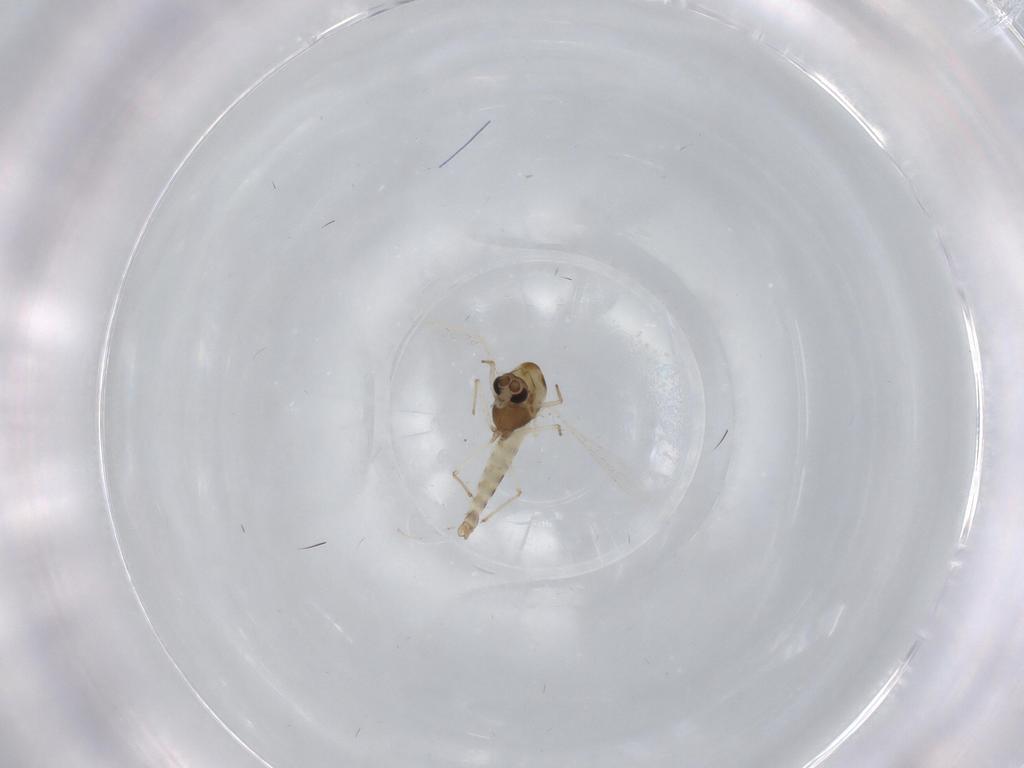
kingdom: Animalia
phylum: Arthropoda
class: Insecta
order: Diptera
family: Chironomidae
